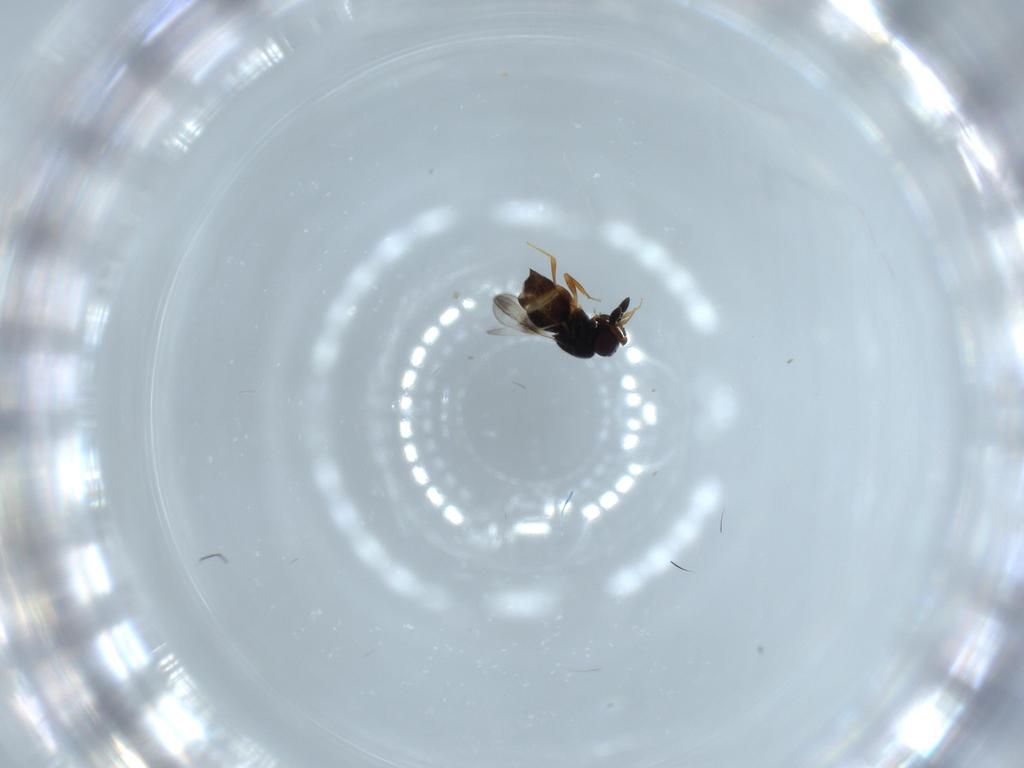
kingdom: Animalia
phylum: Arthropoda
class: Insecta
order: Hymenoptera
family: Ceraphronidae
